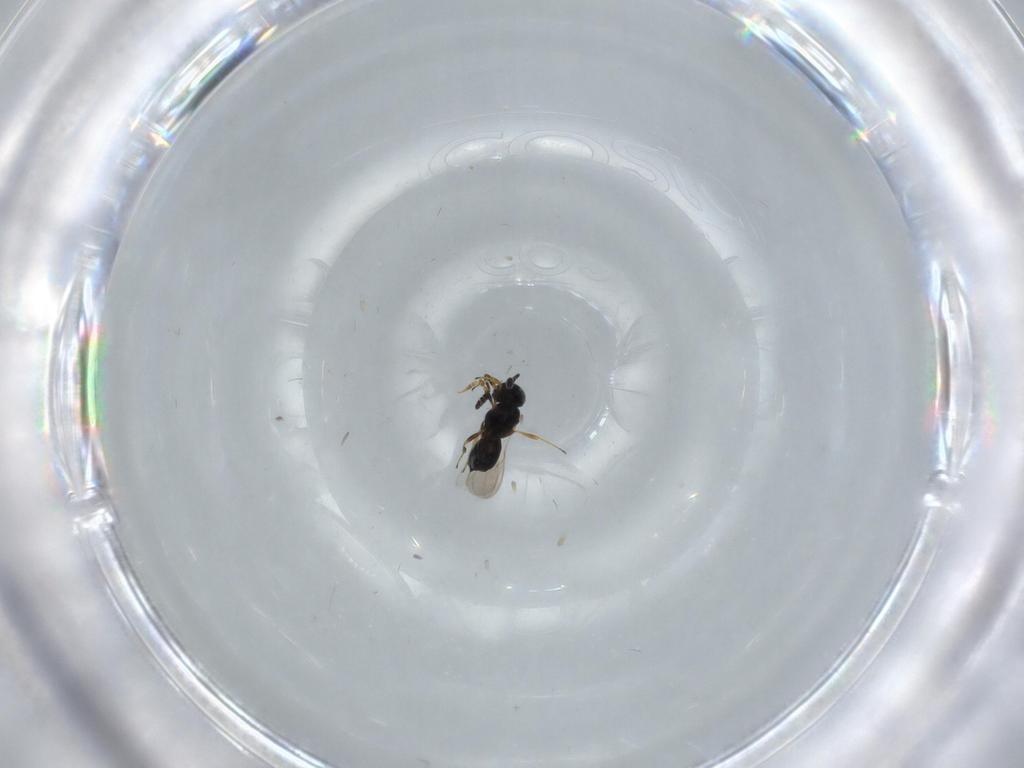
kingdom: Animalia
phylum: Arthropoda
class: Insecta
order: Hymenoptera
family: Scelionidae
